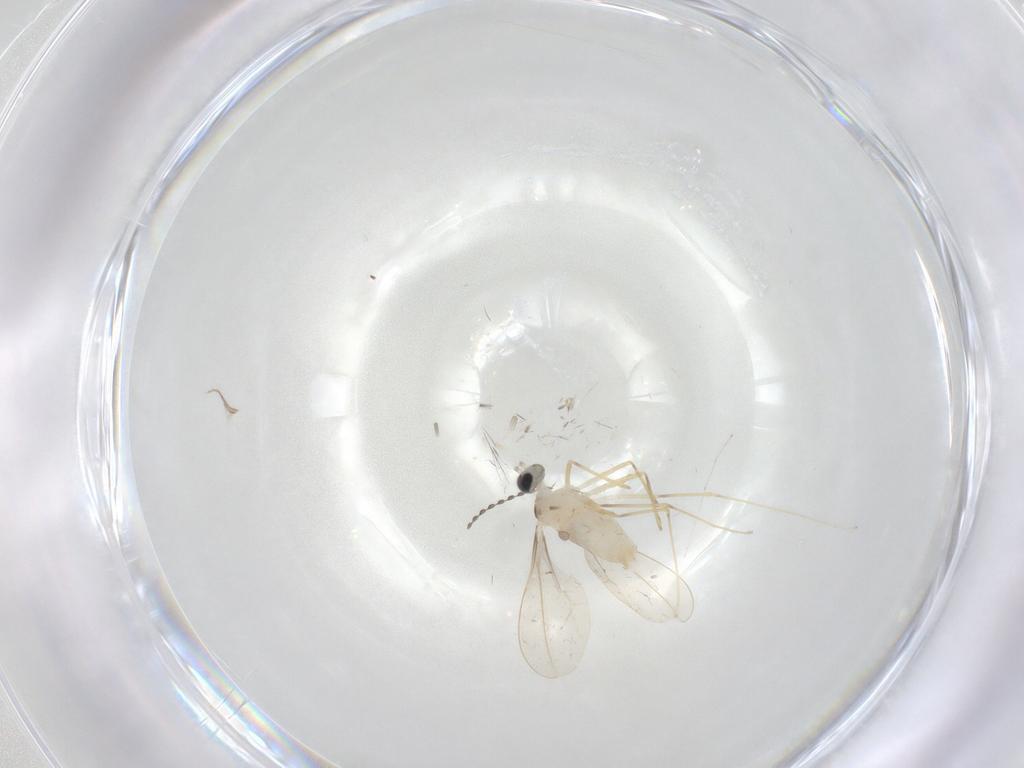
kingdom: Animalia
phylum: Arthropoda
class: Insecta
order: Diptera
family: Cecidomyiidae
